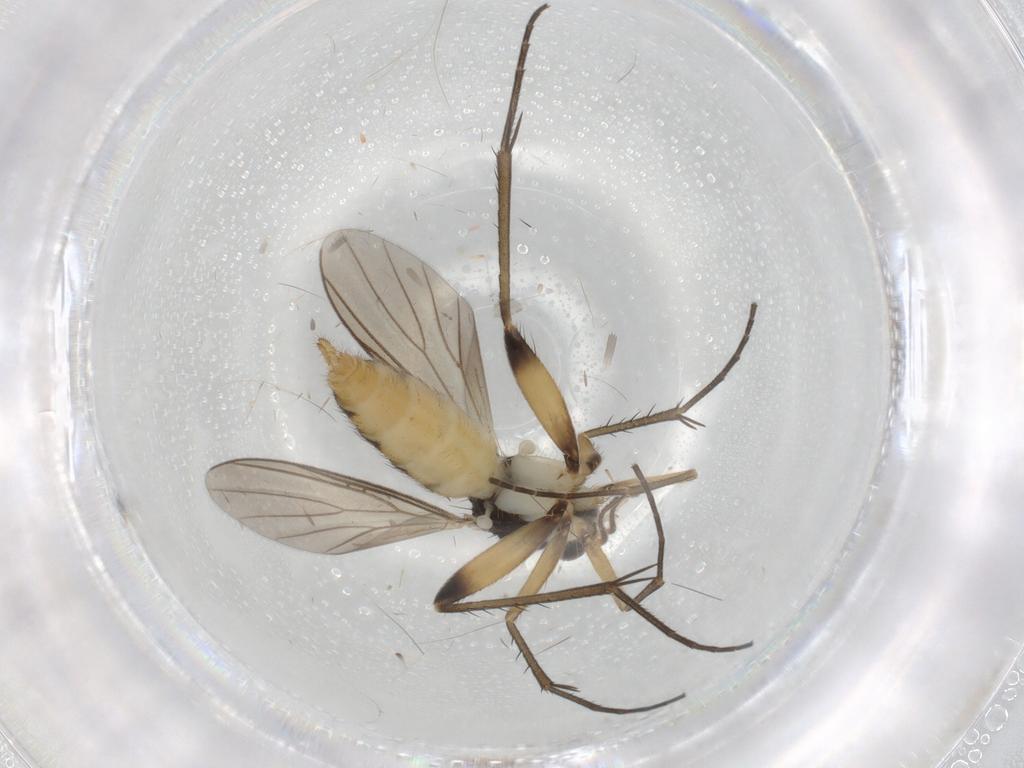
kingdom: Animalia
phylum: Arthropoda
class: Insecta
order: Diptera
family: Mycetophilidae
